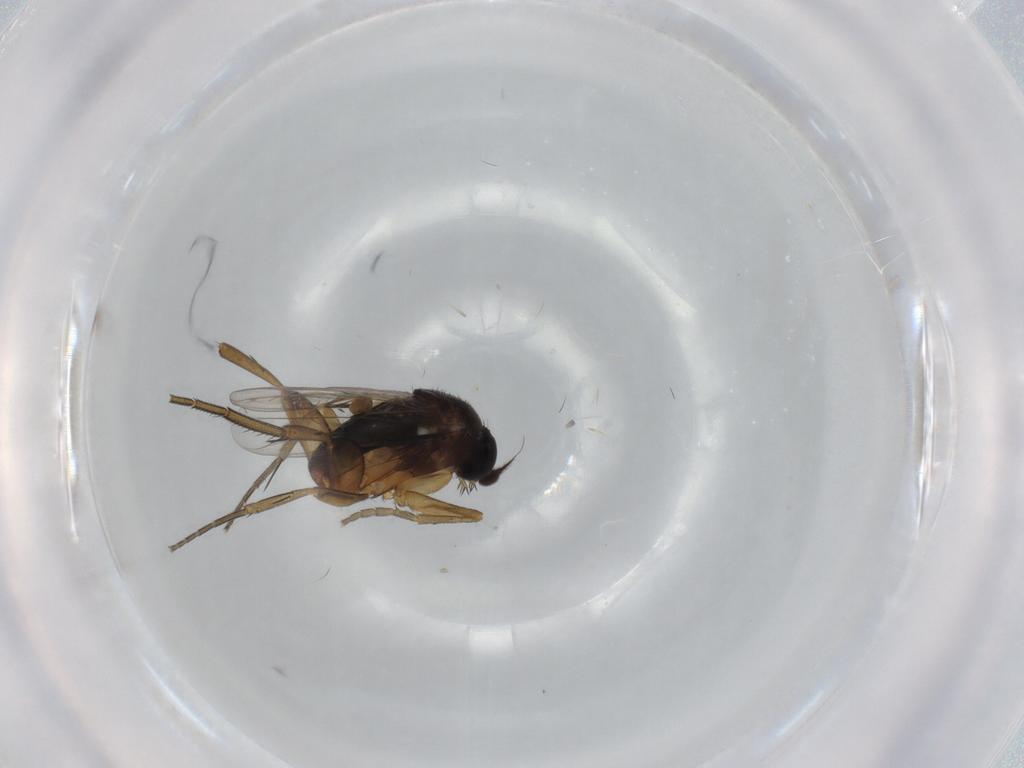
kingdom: Animalia
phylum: Arthropoda
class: Insecta
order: Diptera
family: Phoridae
